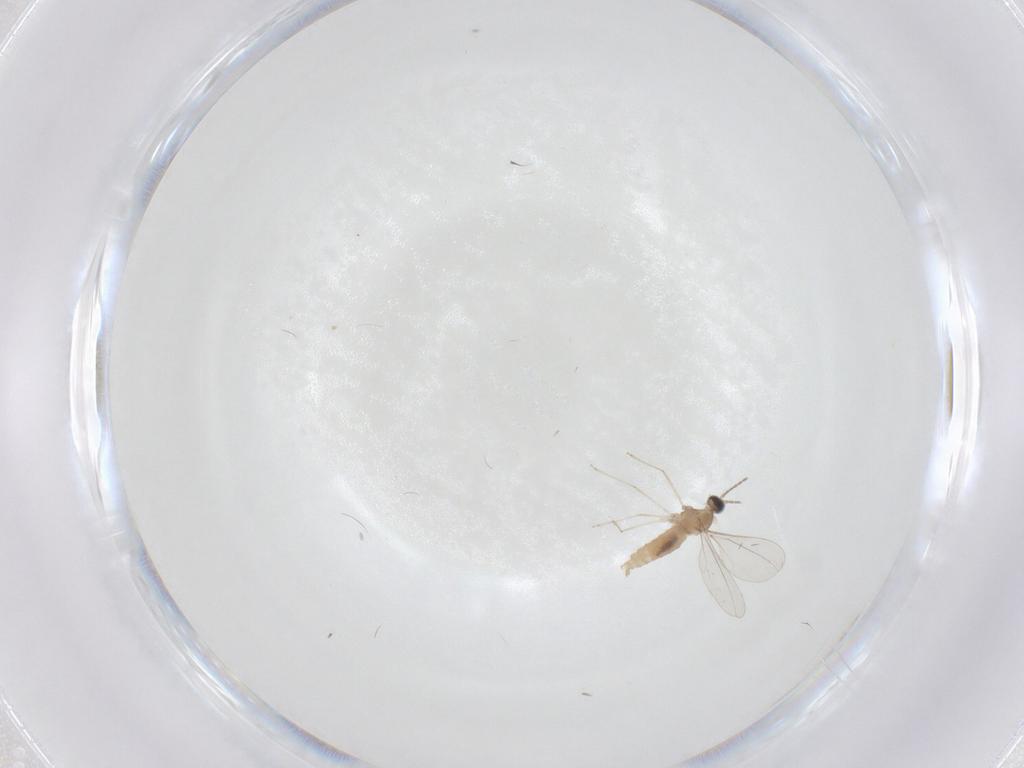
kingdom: Animalia
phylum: Arthropoda
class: Insecta
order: Diptera
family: Cecidomyiidae
